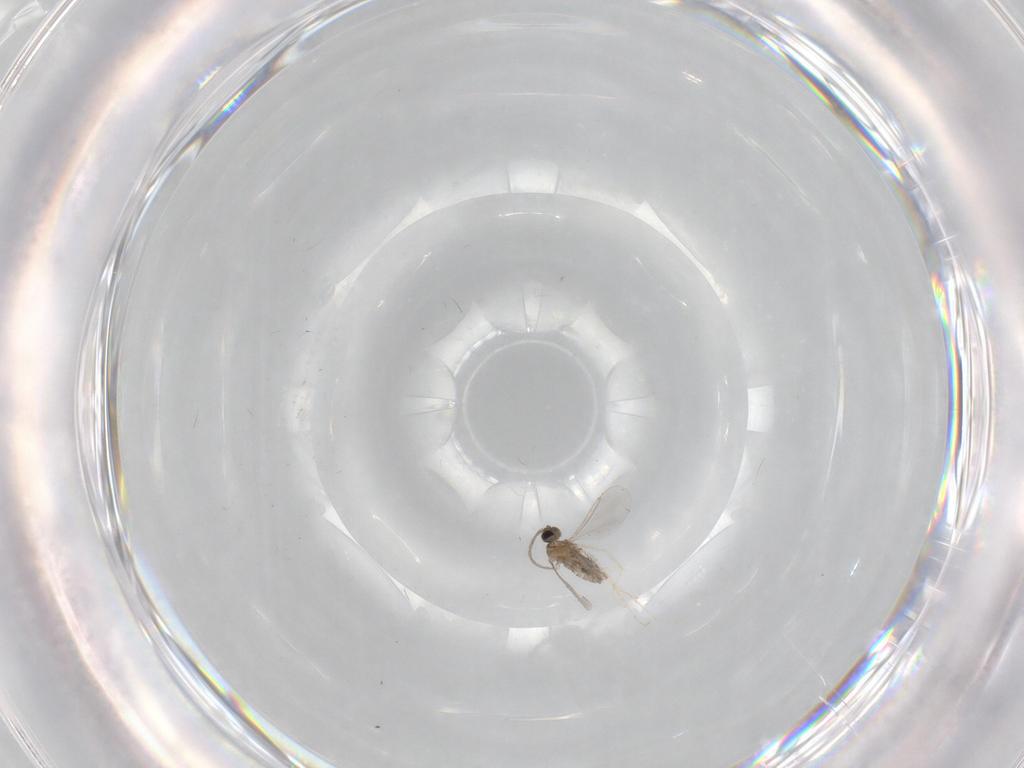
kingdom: Animalia
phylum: Arthropoda
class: Insecta
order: Diptera
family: Cecidomyiidae
